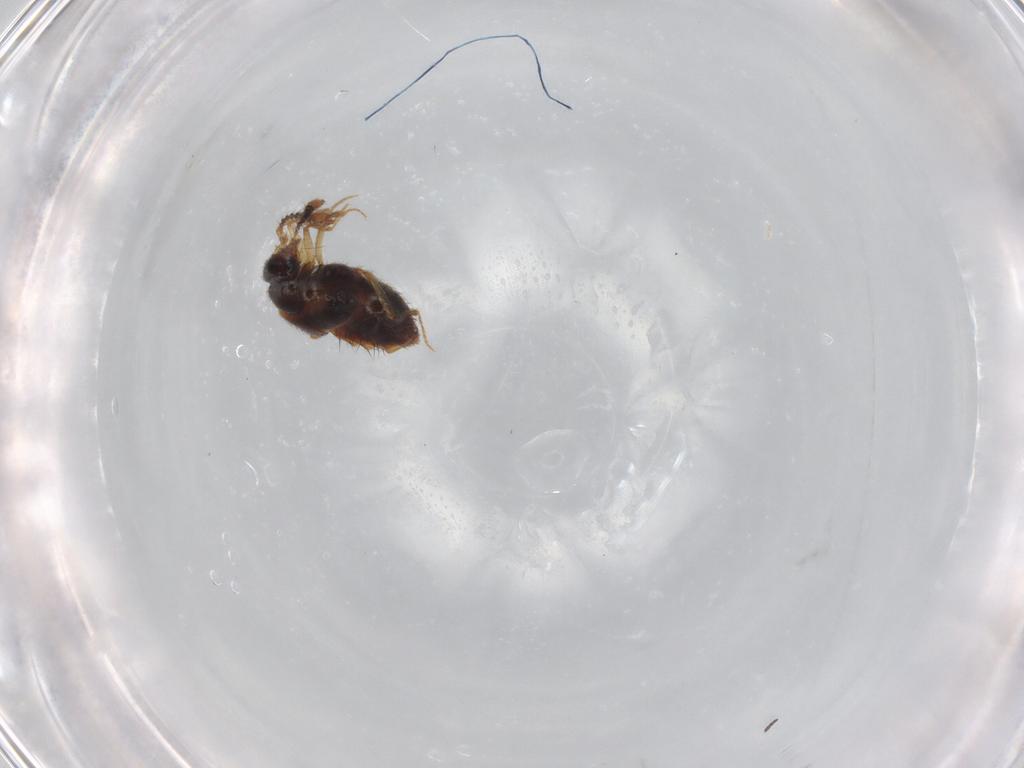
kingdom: Animalia
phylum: Arthropoda
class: Insecta
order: Diptera
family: Psychodidae
